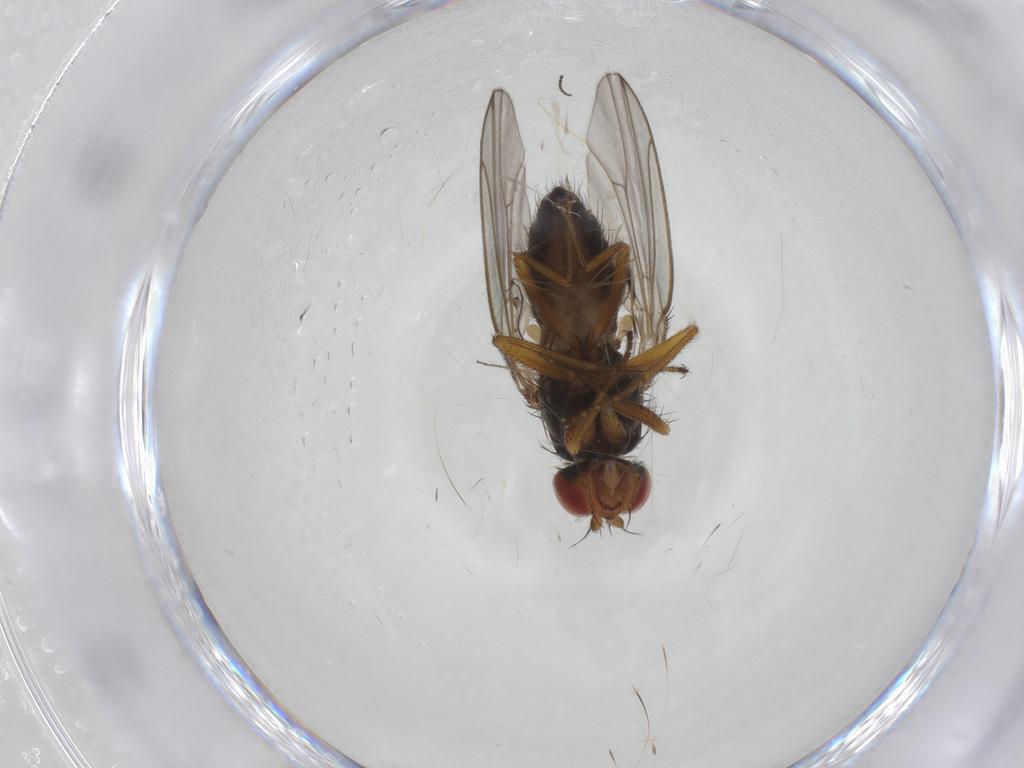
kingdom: Animalia
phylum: Arthropoda
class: Insecta
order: Diptera
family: Drosophilidae
